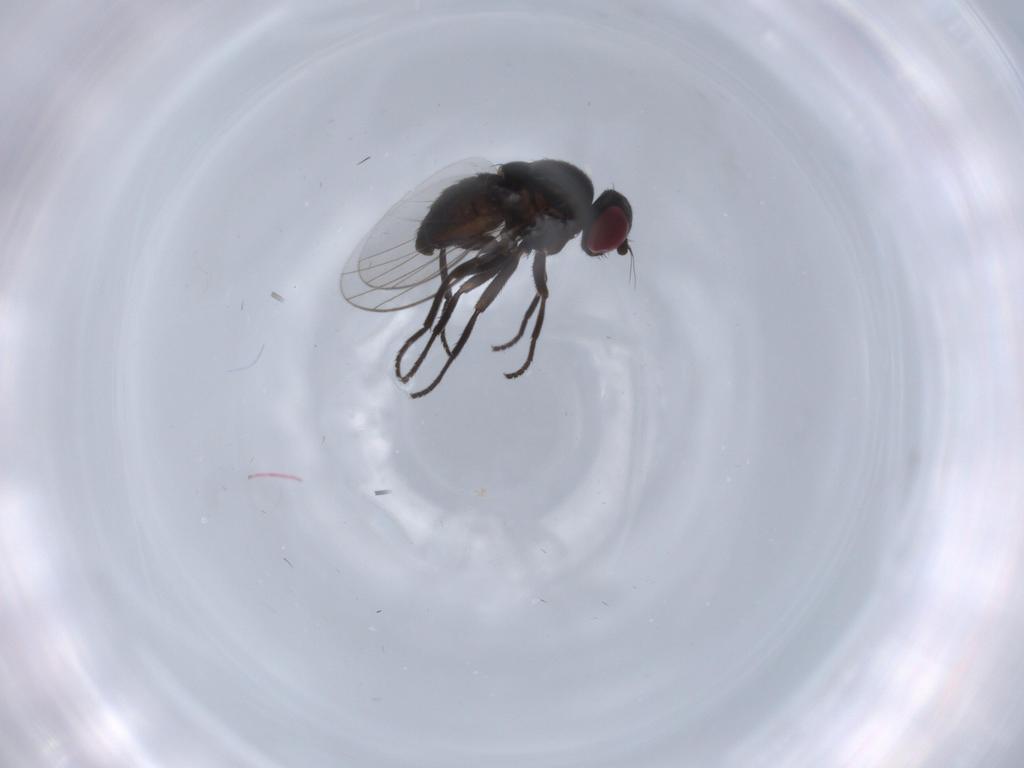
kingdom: Animalia
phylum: Arthropoda
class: Insecta
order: Diptera
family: Agromyzidae
